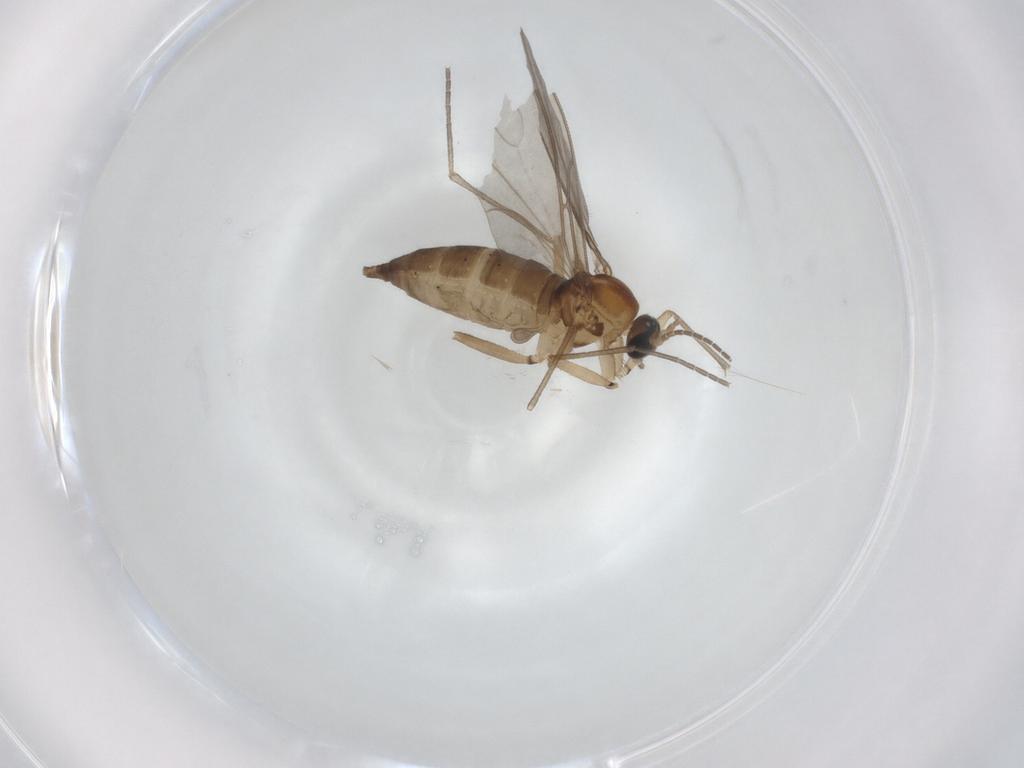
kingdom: Animalia
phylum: Arthropoda
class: Insecta
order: Diptera
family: Sciaridae
